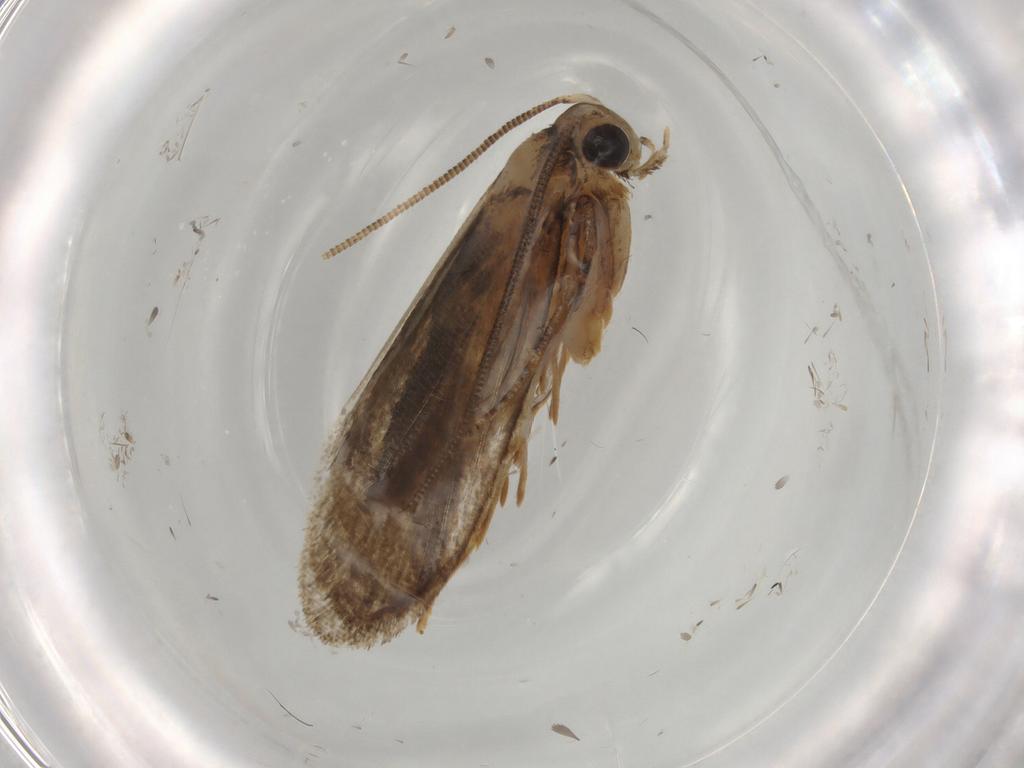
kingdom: Animalia
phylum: Arthropoda
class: Insecta
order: Lepidoptera
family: Tineidae
